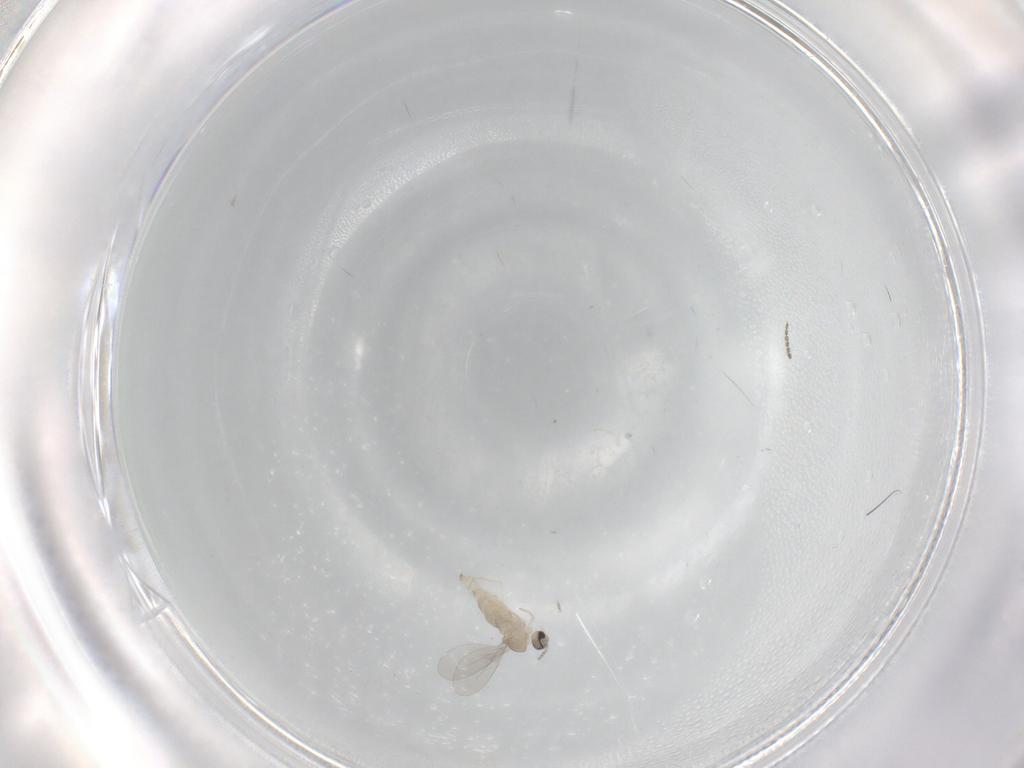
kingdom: Animalia
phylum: Arthropoda
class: Insecta
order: Diptera
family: Cecidomyiidae
